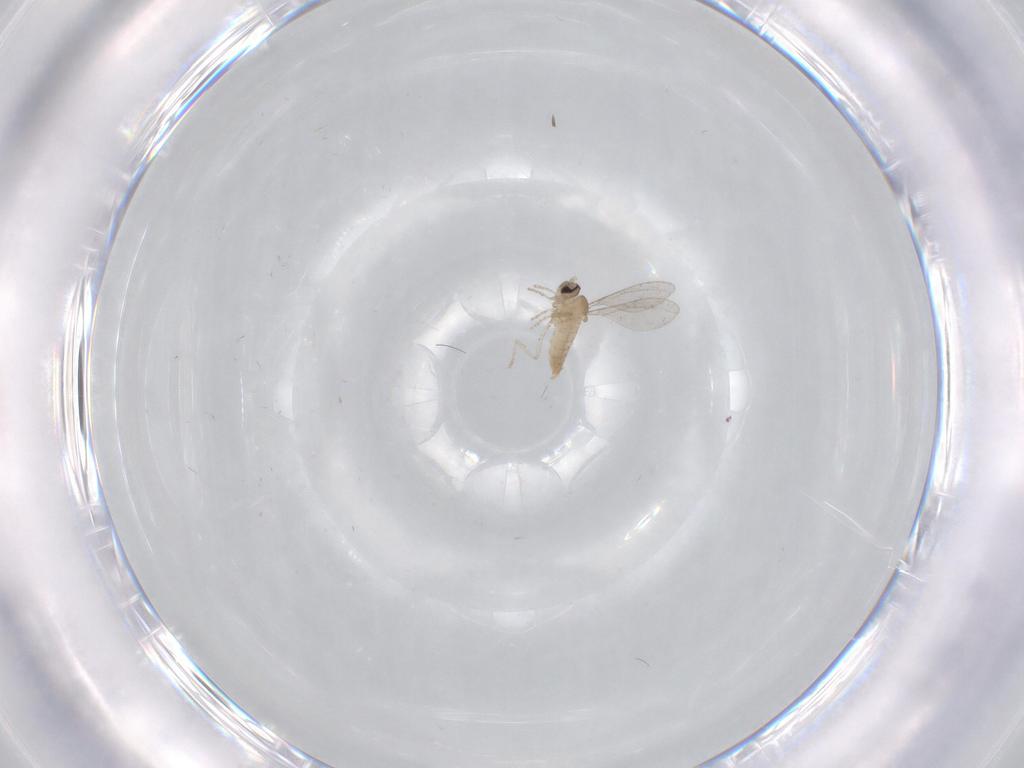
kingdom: Animalia
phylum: Arthropoda
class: Insecta
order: Diptera
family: Cecidomyiidae
